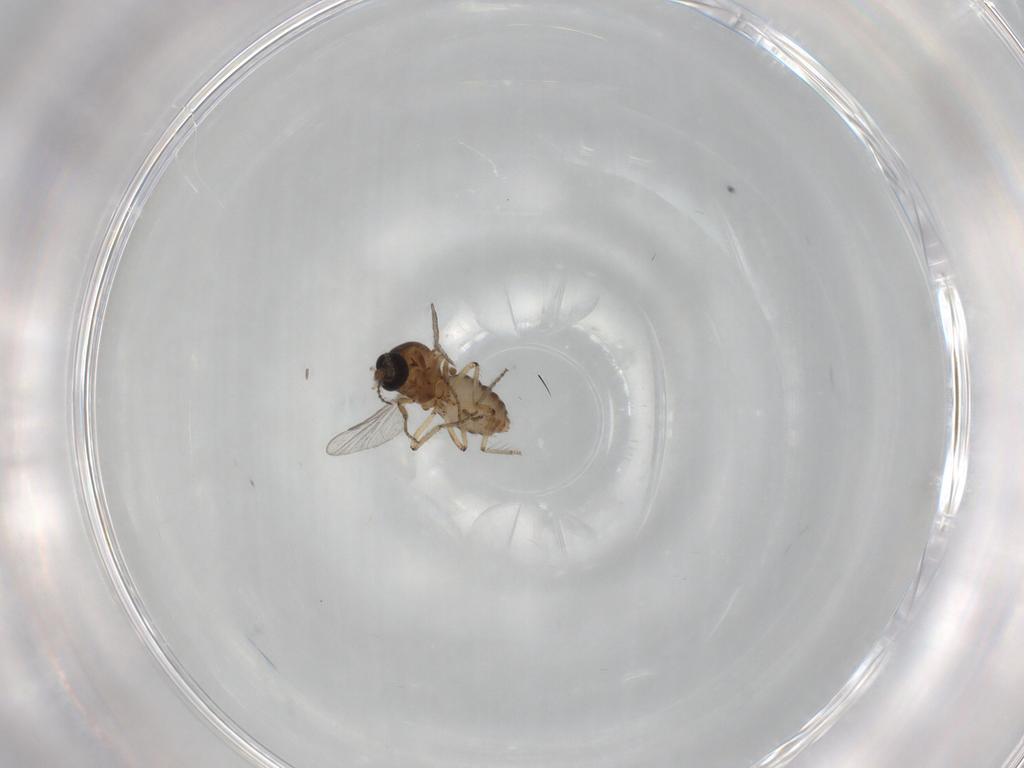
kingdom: Animalia
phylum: Arthropoda
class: Insecta
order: Diptera
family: Ceratopogonidae
